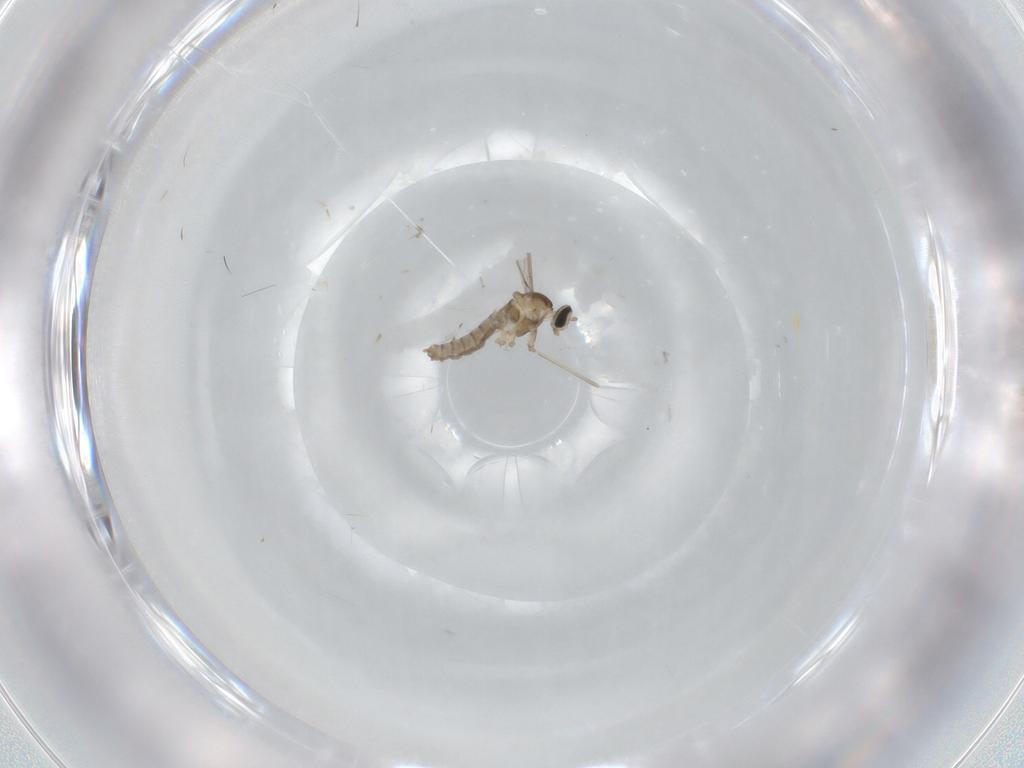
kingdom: Animalia
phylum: Arthropoda
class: Insecta
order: Diptera
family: Cecidomyiidae
